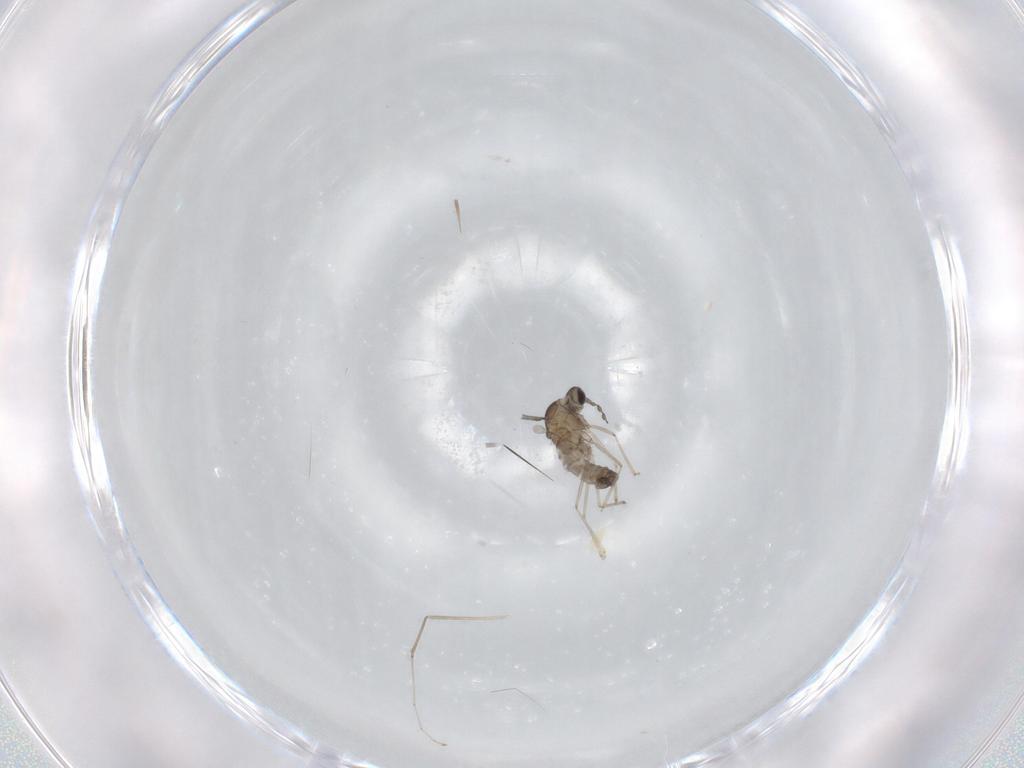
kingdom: Animalia
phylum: Arthropoda
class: Insecta
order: Diptera
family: Cecidomyiidae
